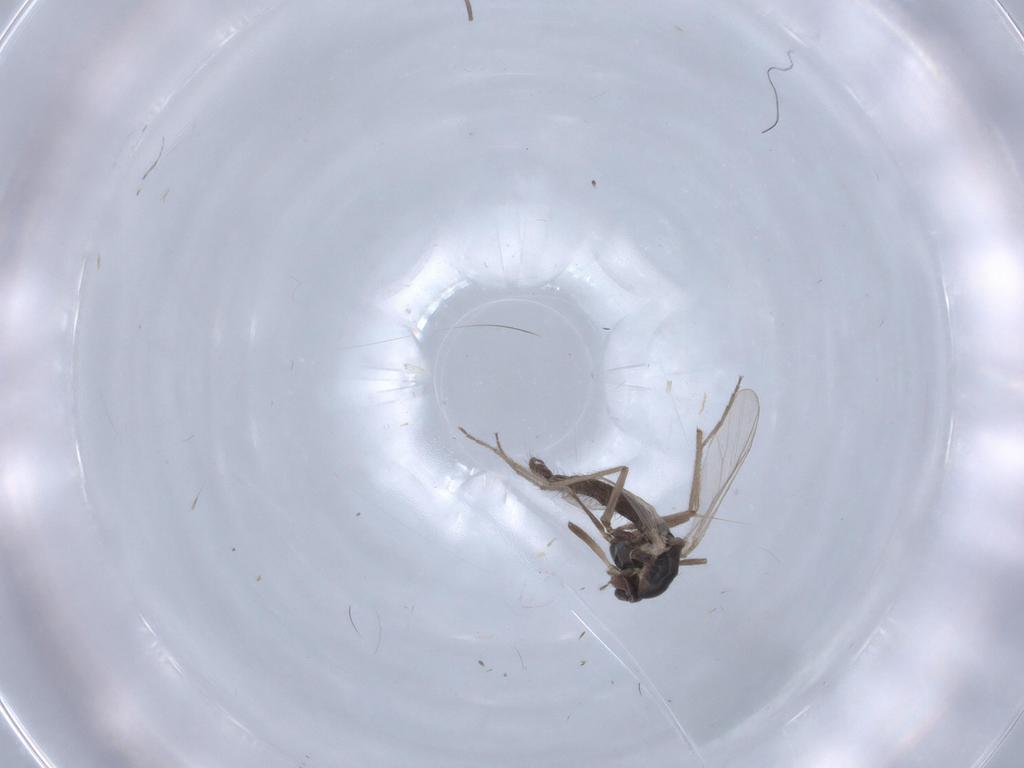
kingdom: Animalia
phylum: Arthropoda
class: Insecta
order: Diptera
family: Chironomidae
